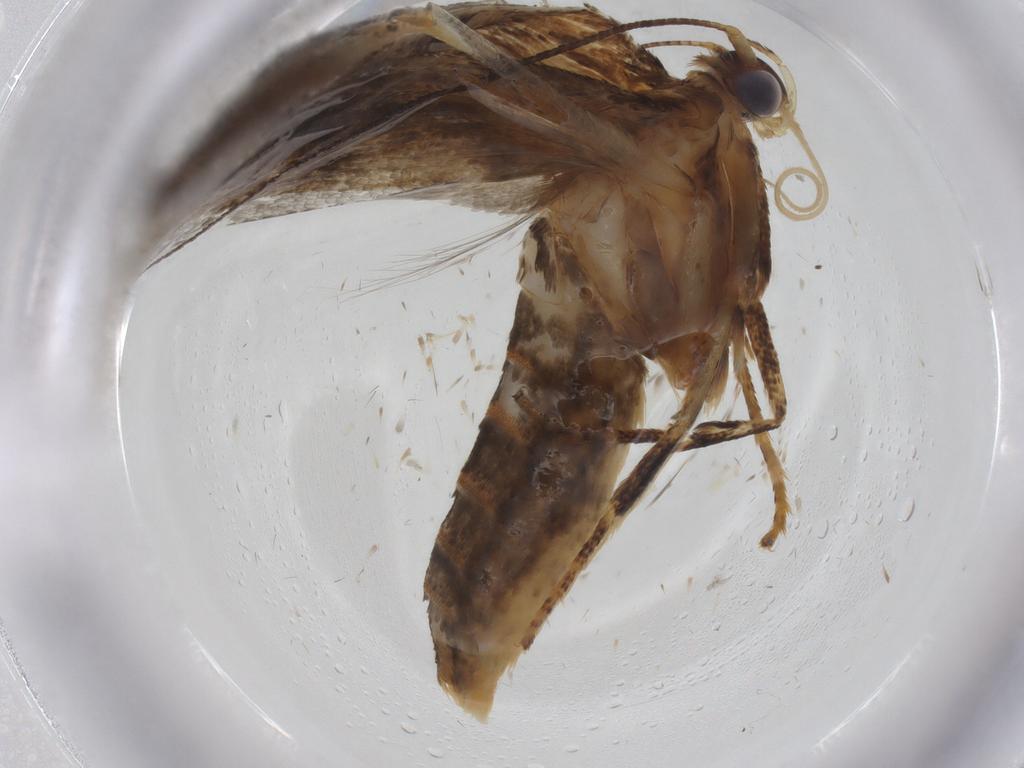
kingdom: Animalia
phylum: Arthropoda
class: Insecta
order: Lepidoptera
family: Blastobasidae
